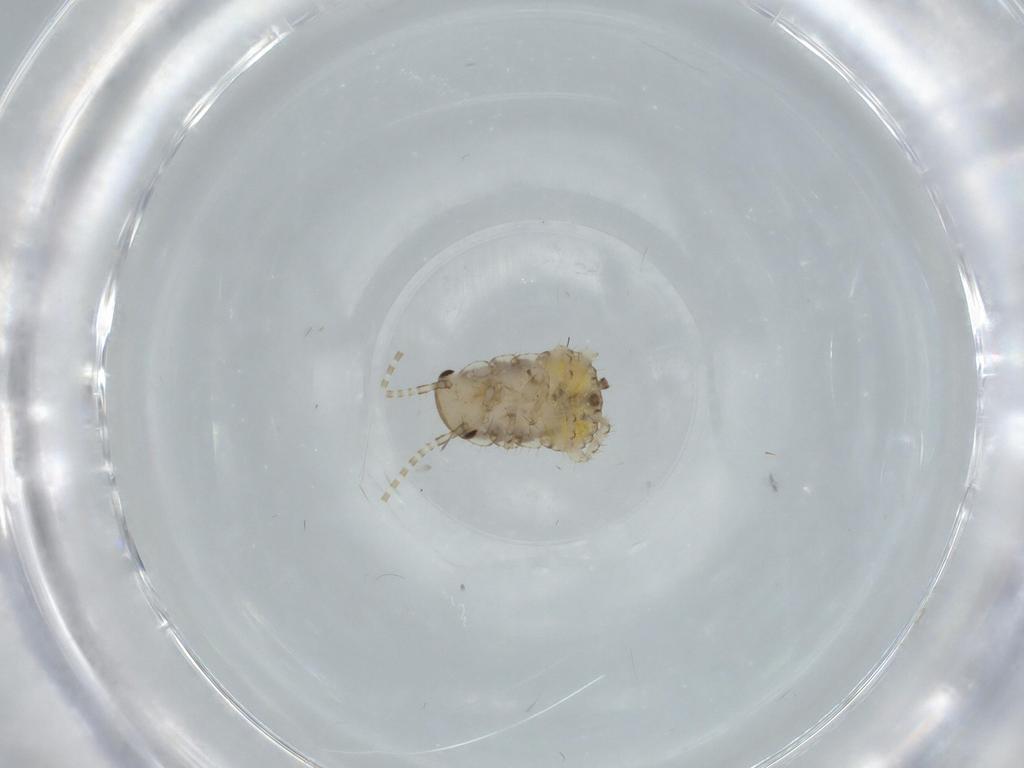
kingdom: Animalia
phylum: Arthropoda
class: Insecta
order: Blattodea
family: Ectobiidae
